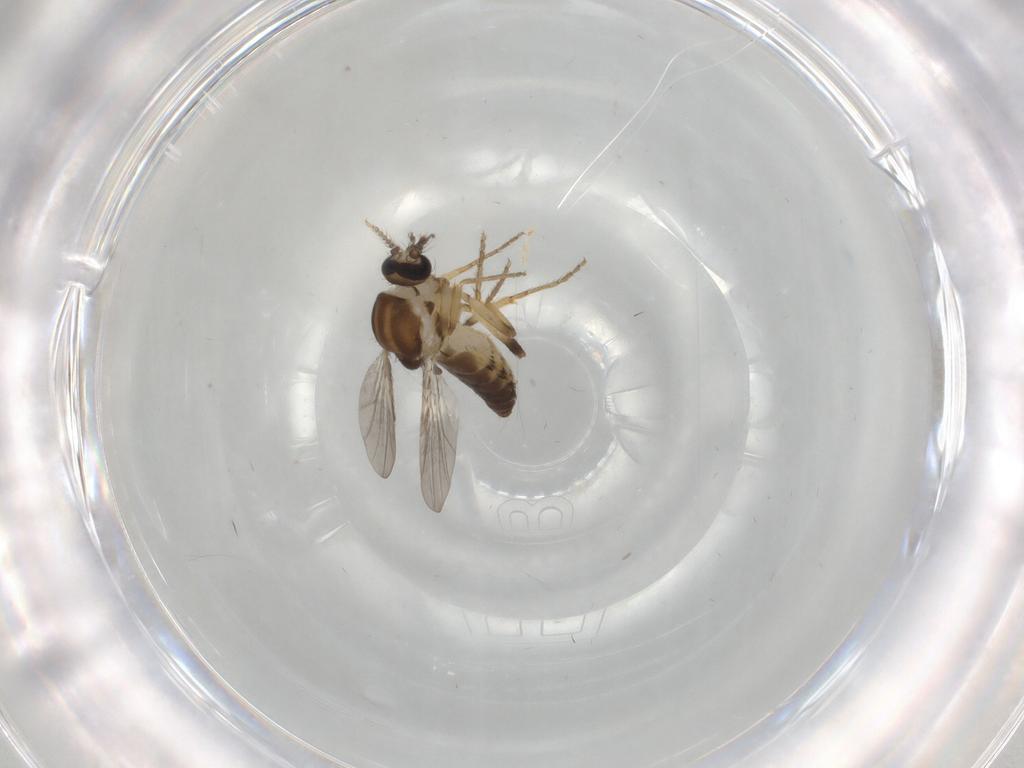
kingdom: Animalia
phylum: Arthropoda
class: Insecta
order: Diptera
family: Ceratopogonidae
